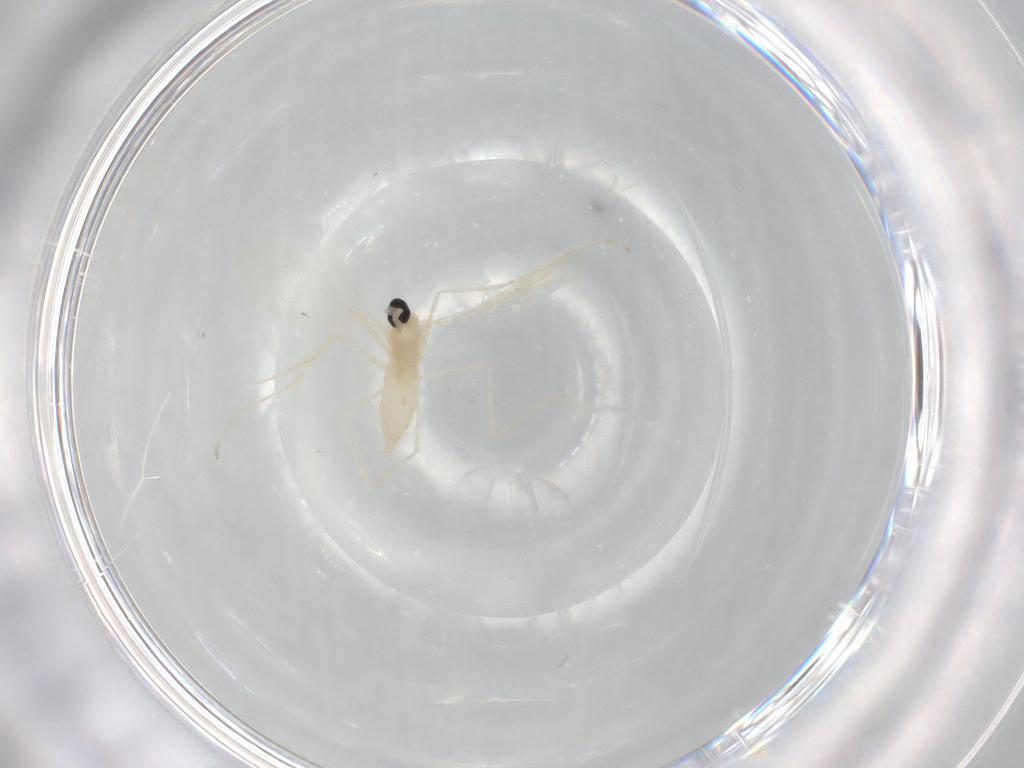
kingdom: Animalia
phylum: Arthropoda
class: Insecta
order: Diptera
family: Cecidomyiidae
